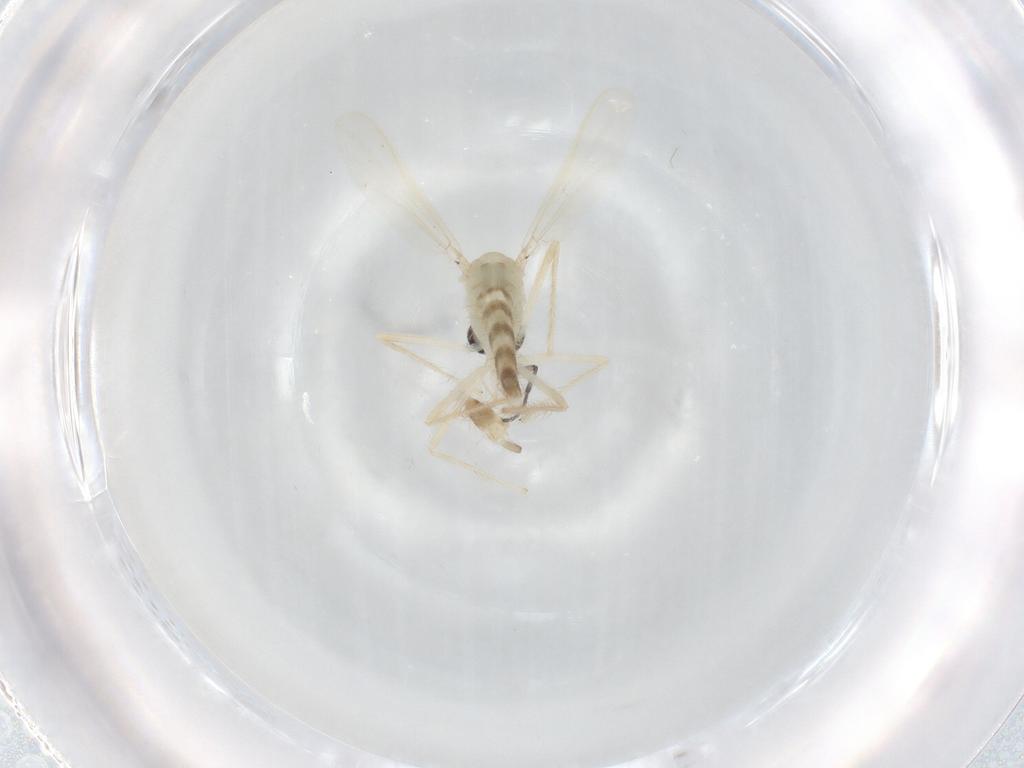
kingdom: Animalia
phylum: Arthropoda
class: Insecta
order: Diptera
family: Chironomidae
